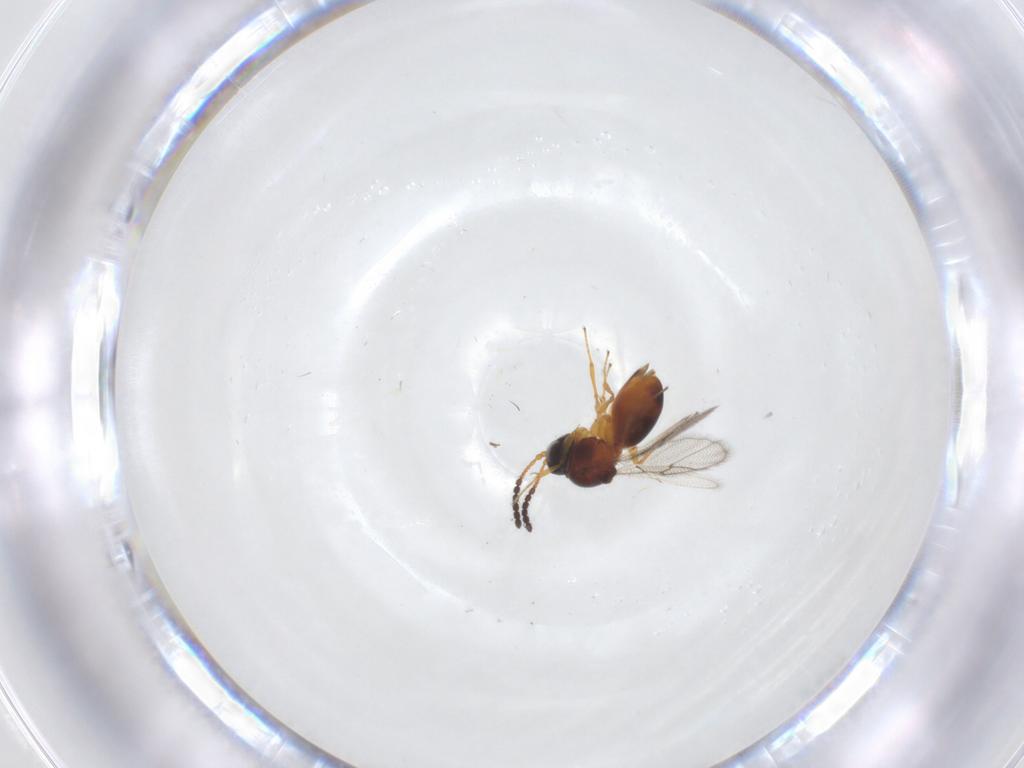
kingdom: Animalia
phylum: Arthropoda
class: Insecta
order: Hymenoptera
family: Figitidae
